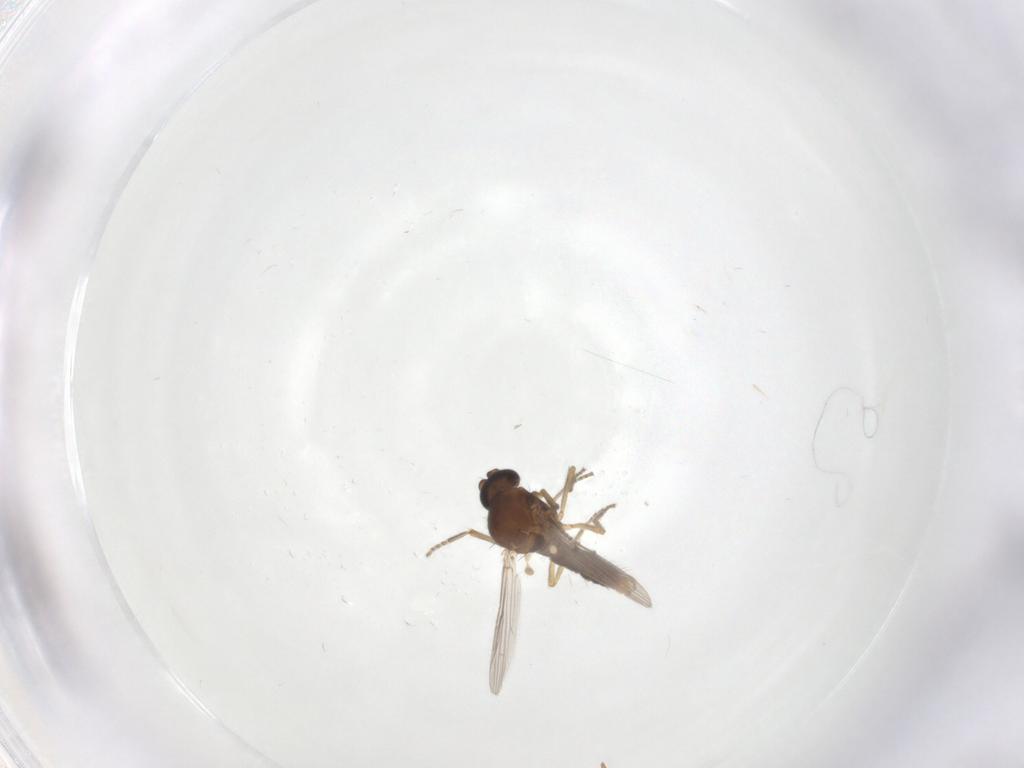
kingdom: Animalia
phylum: Arthropoda
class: Insecta
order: Diptera
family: Ceratopogonidae
